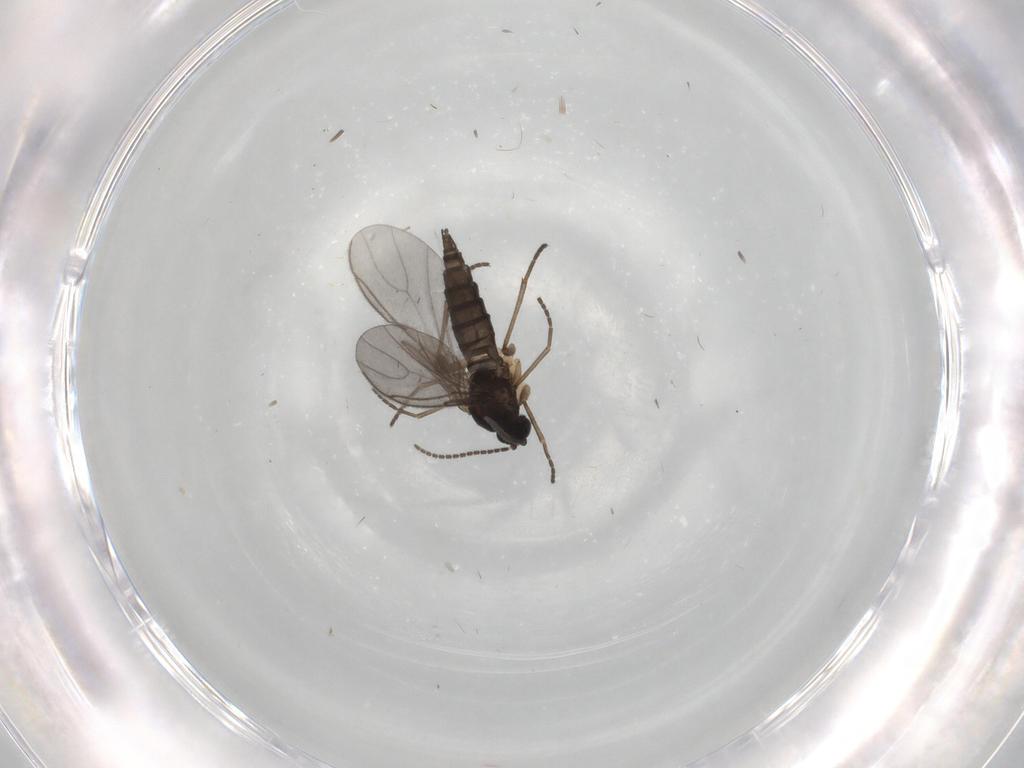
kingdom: Animalia
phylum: Arthropoda
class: Insecta
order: Diptera
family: Sciaridae
